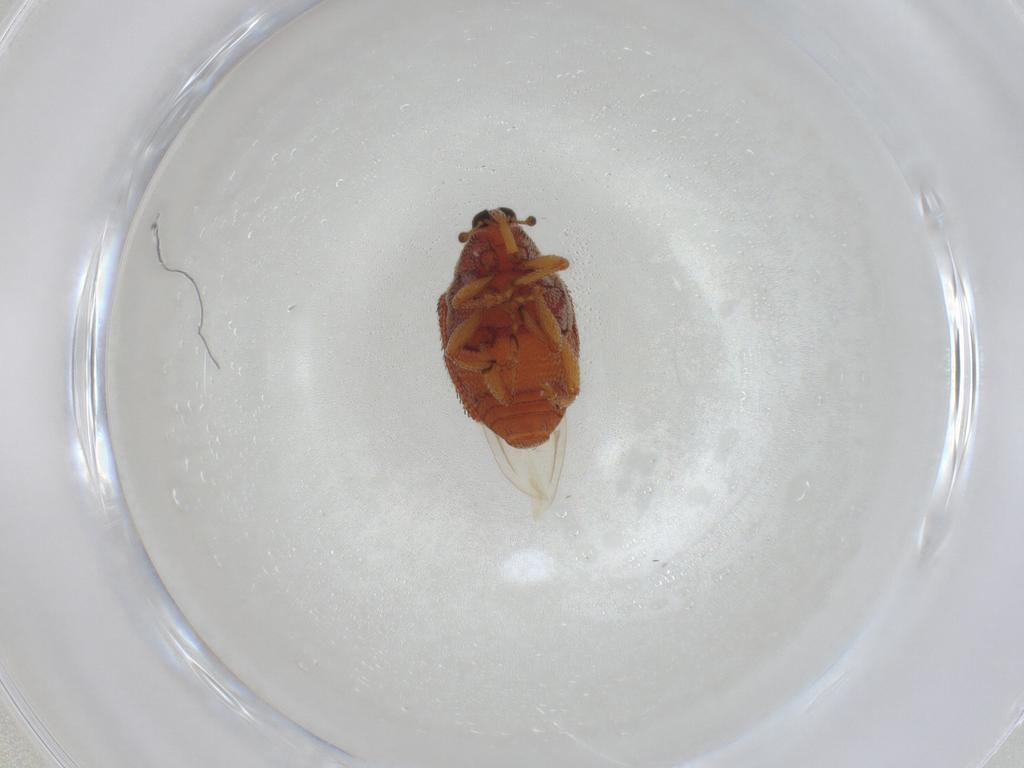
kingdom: Animalia
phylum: Arthropoda
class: Insecta
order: Coleoptera
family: Curculionidae
